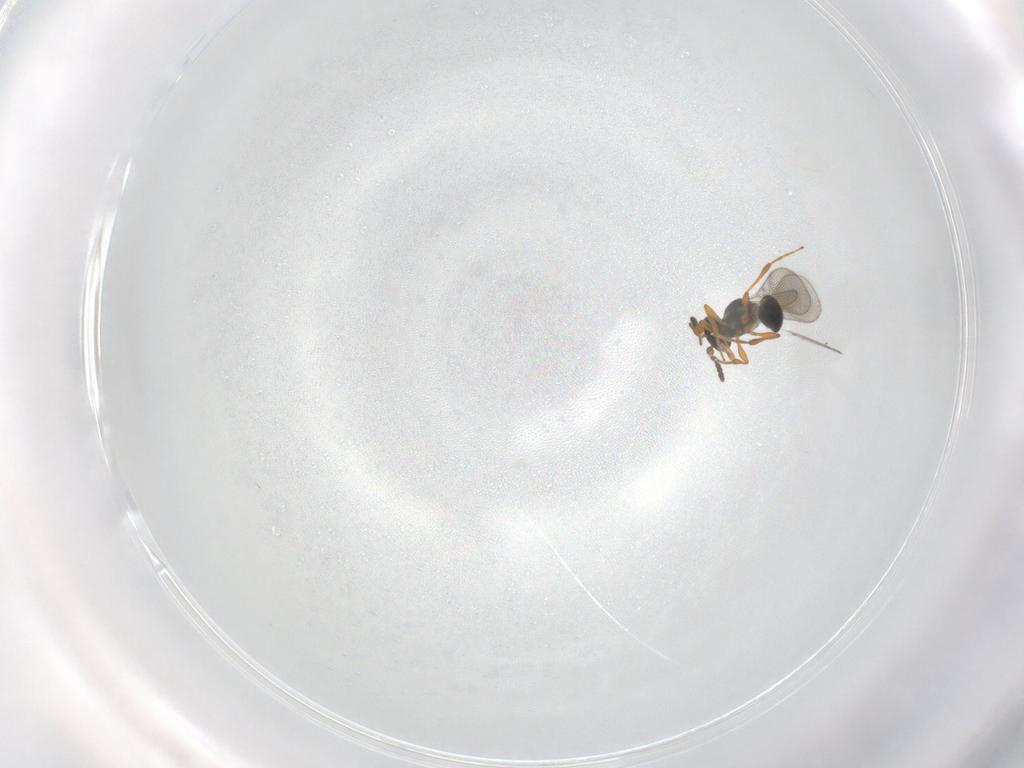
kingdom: Animalia
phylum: Arthropoda
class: Insecta
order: Hymenoptera
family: Platygastridae
